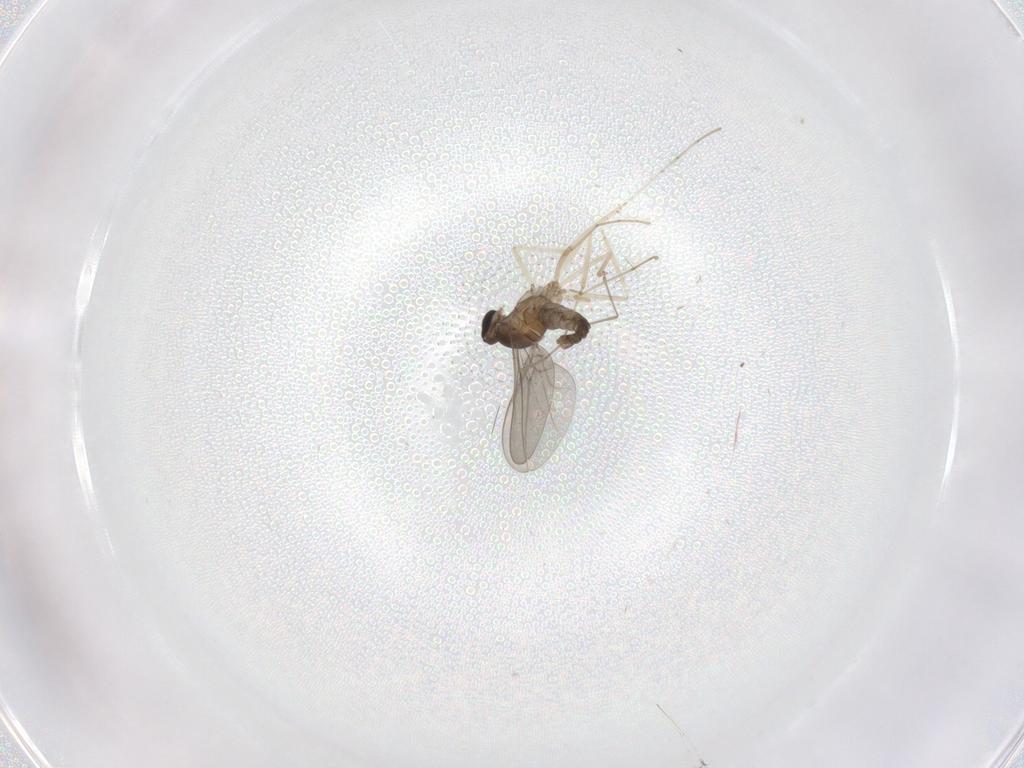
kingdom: Animalia
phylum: Arthropoda
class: Insecta
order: Diptera
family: Cecidomyiidae
